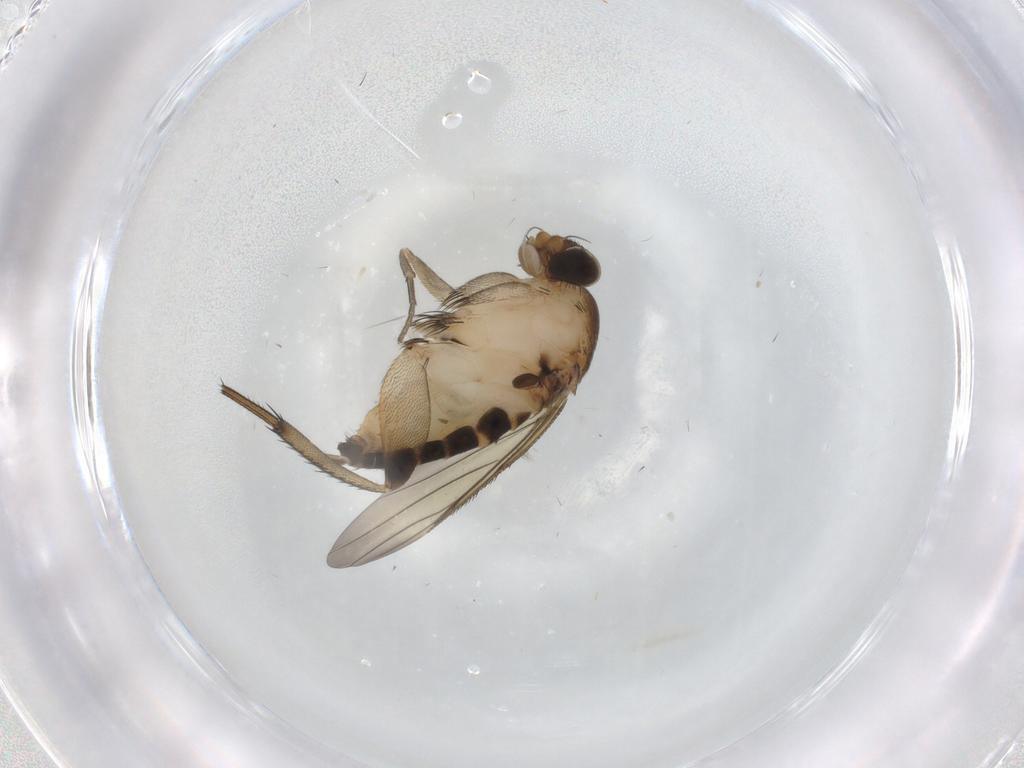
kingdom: Animalia
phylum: Arthropoda
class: Insecta
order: Diptera
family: Psychodidae
